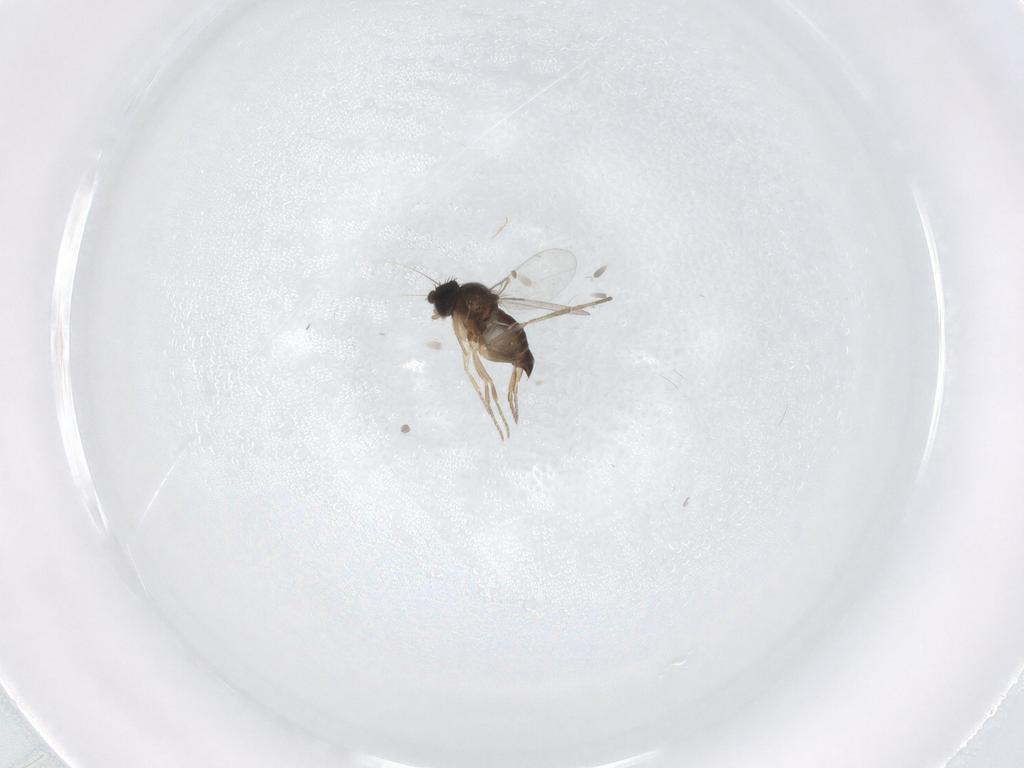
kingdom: Animalia
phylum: Arthropoda
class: Insecta
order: Diptera
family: Phoridae
